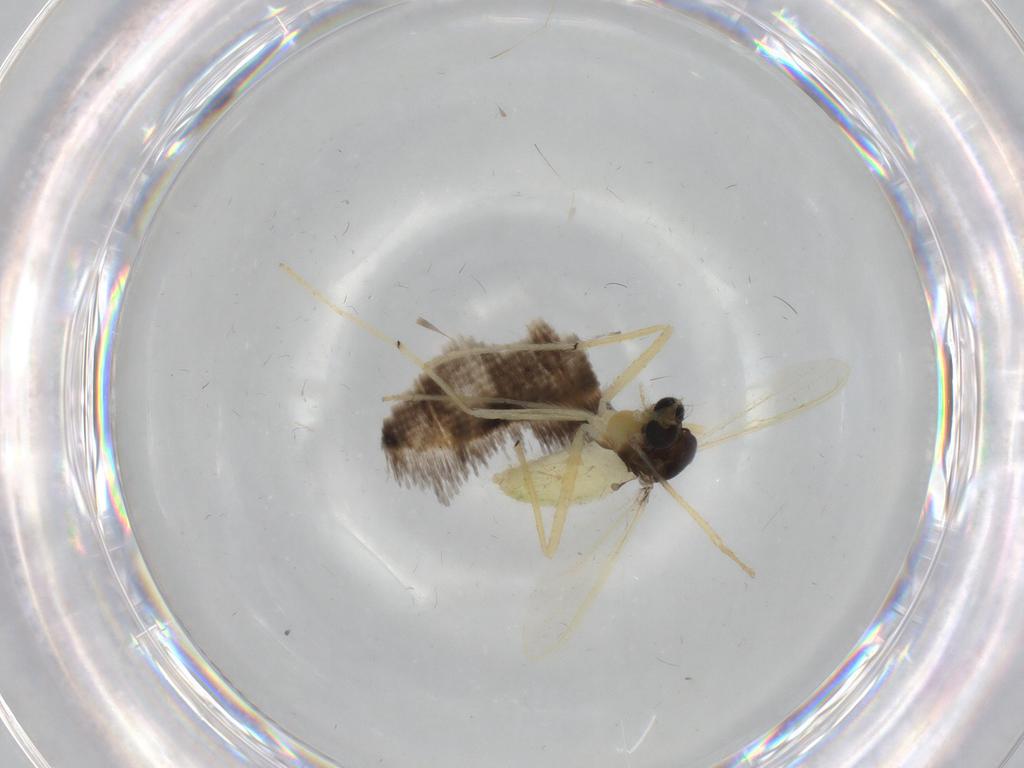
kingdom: Animalia
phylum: Arthropoda
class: Insecta
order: Diptera
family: Chironomidae
